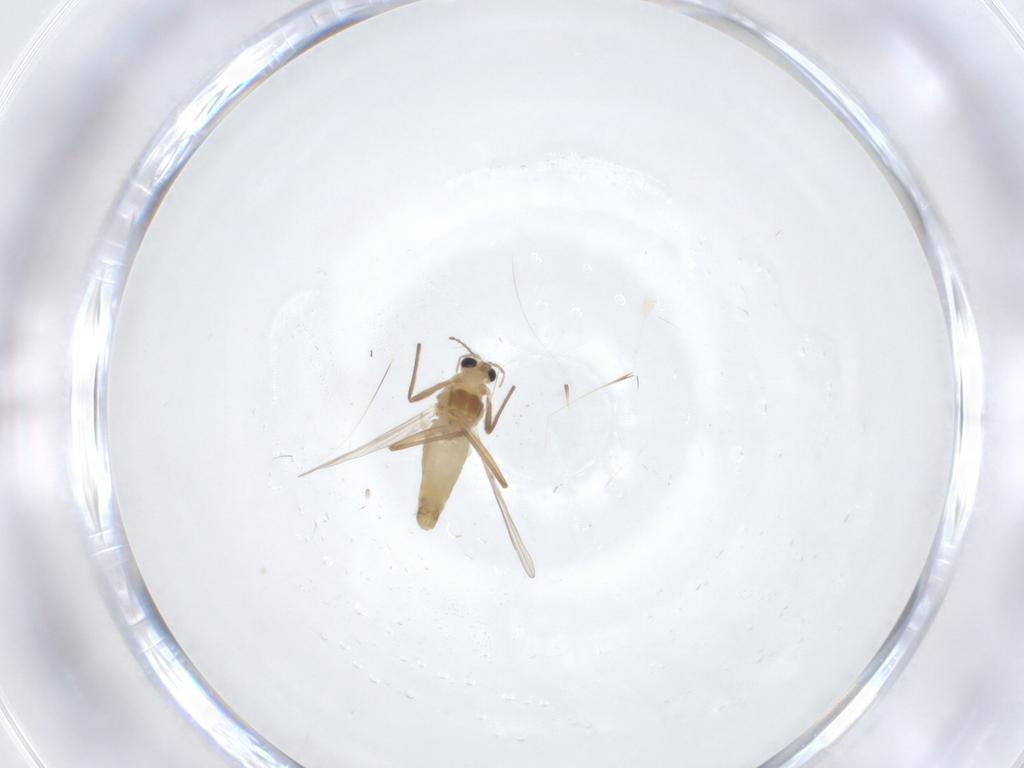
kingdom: Animalia
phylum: Arthropoda
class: Insecta
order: Diptera
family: Chironomidae
